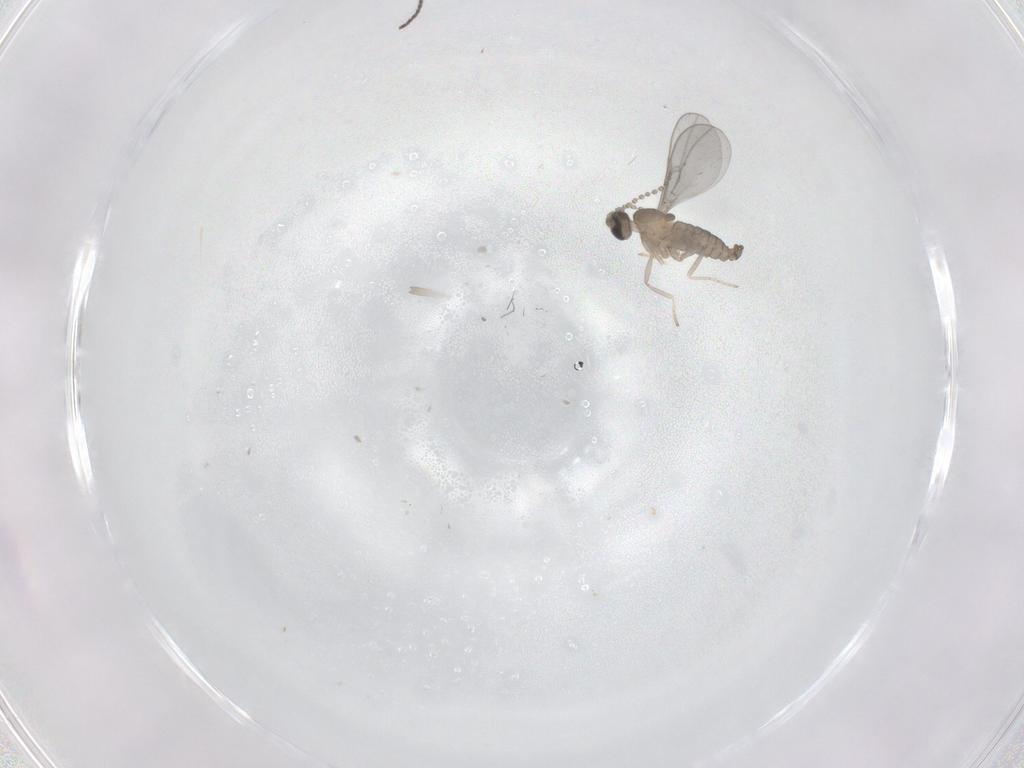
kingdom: Animalia
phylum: Arthropoda
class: Insecta
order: Diptera
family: Sciaridae
